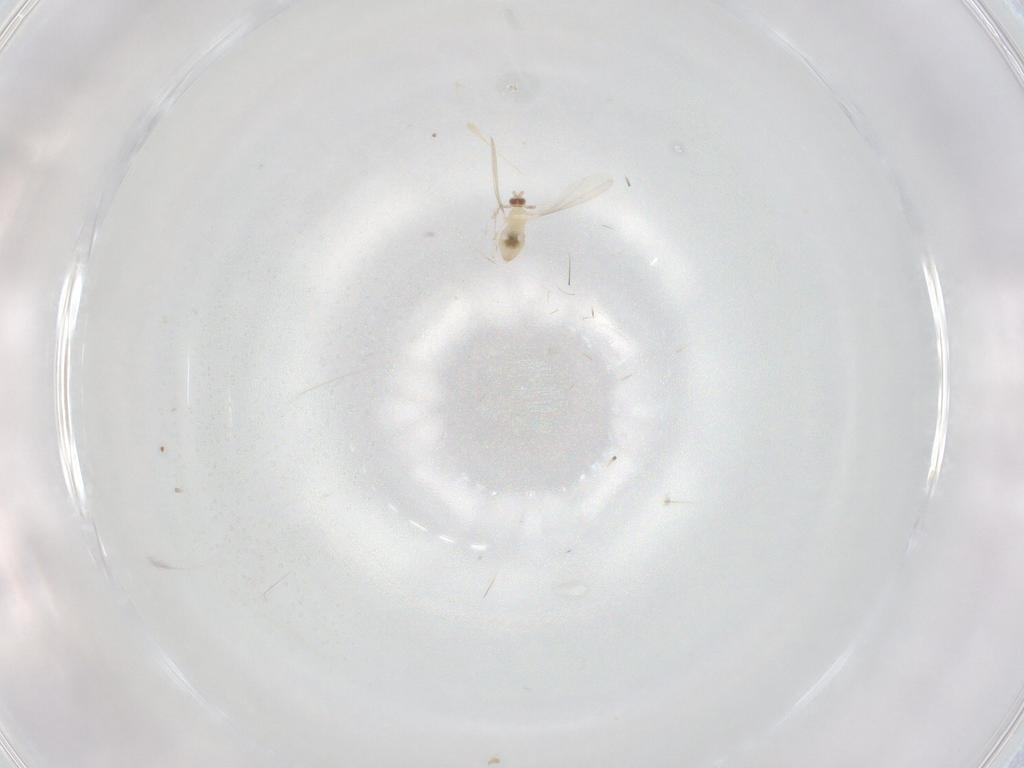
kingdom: Animalia
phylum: Arthropoda
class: Insecta
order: Diptera
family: Cecidomyiidae
